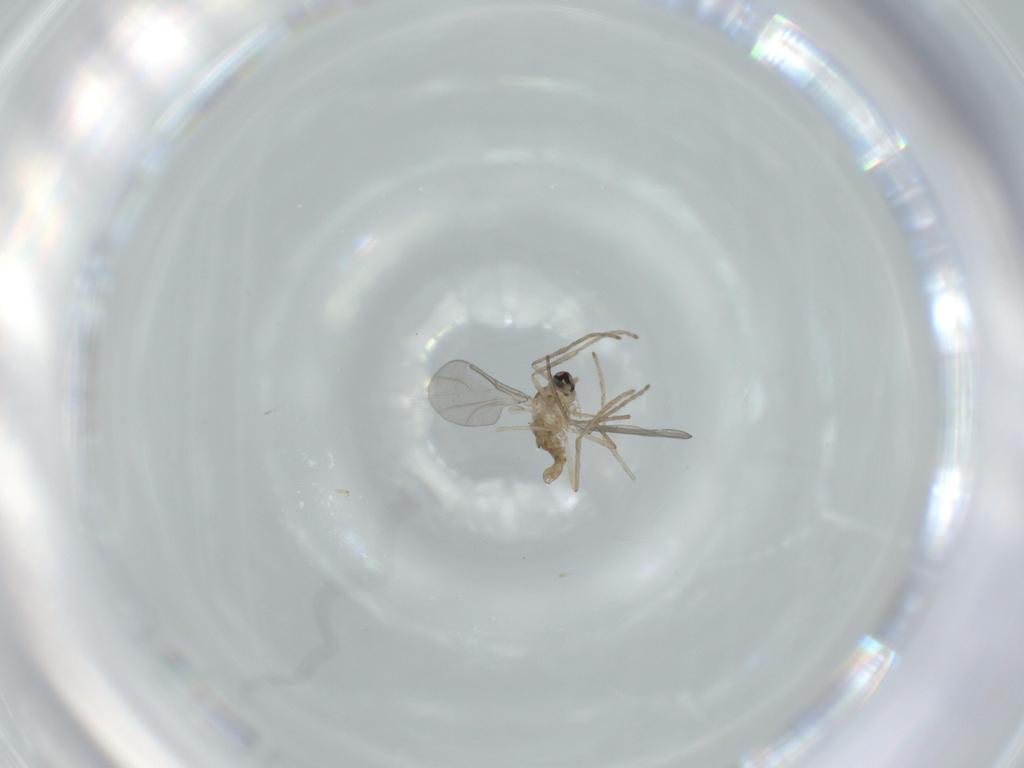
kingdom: Animalia
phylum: Arthropoda
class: Insecta
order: Diptera
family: Cecidomyiidae
